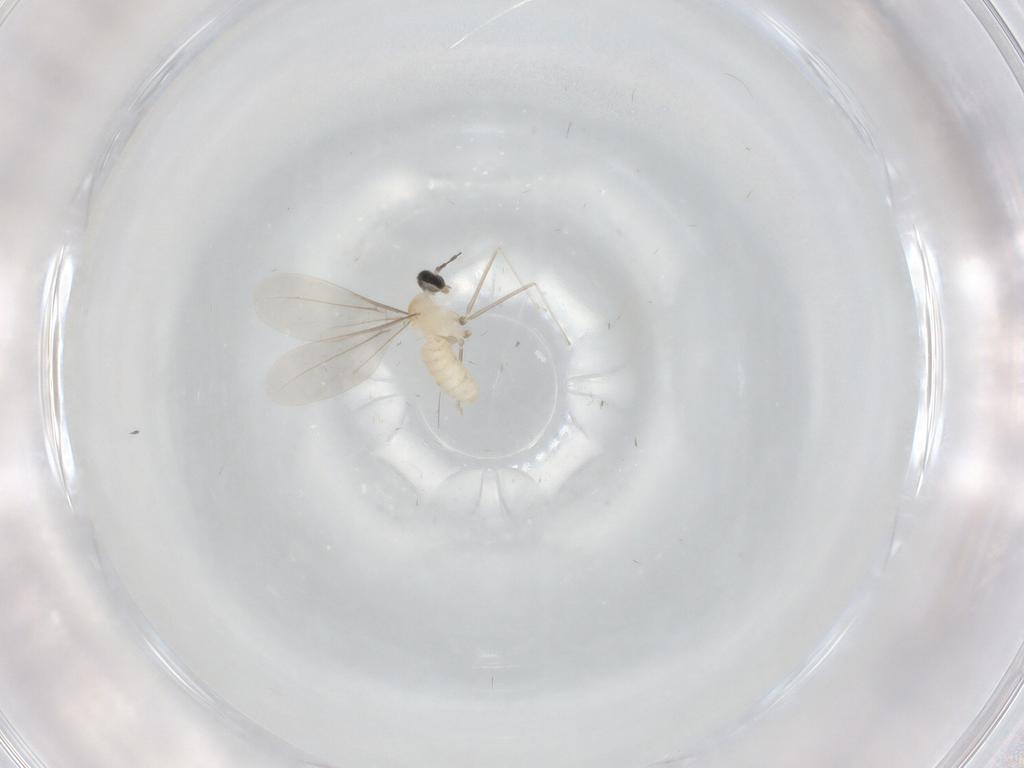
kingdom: Animalia
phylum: Arthropoda
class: Insecta
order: Diptera
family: Cecidomyiidae
